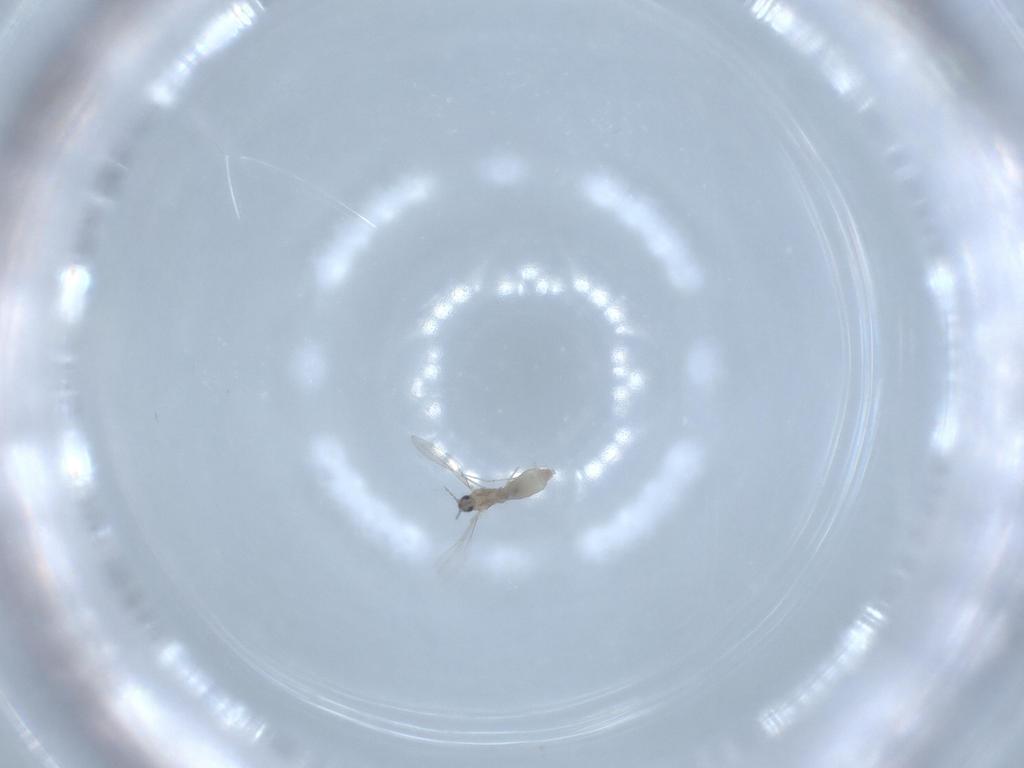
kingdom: Animalia
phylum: Arthropoda
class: Insecta
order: Diptera
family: Cecidomyiidae
